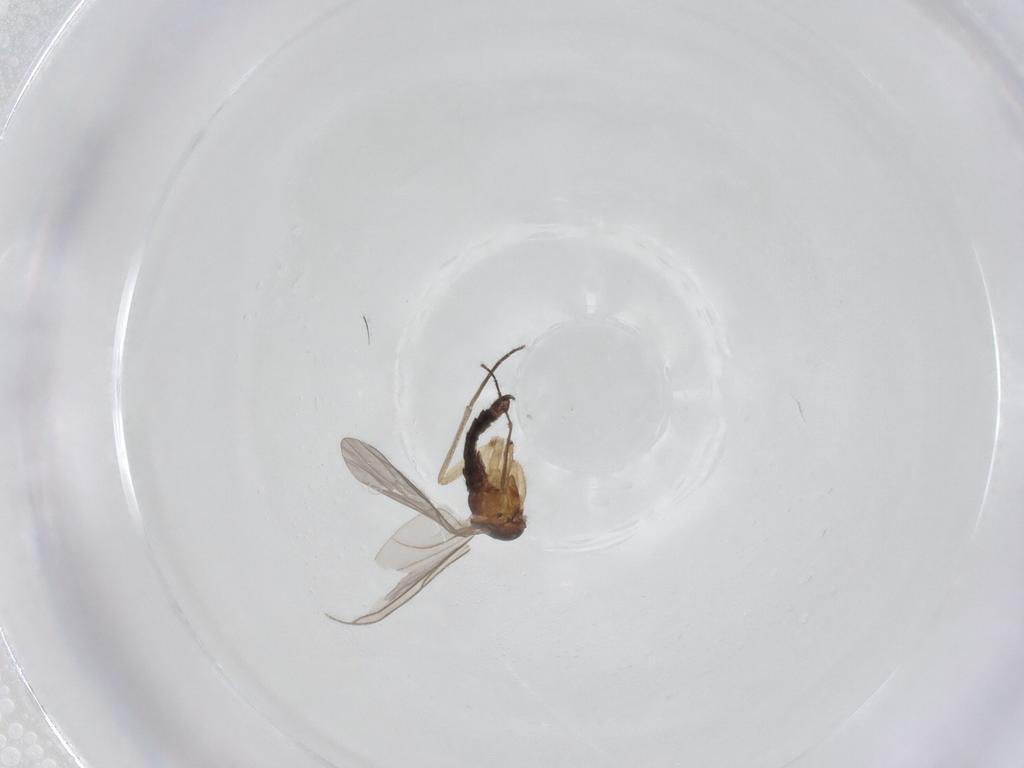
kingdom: Animalia
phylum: Arthropoda
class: Insecta
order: Diptera
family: Sciaridae
